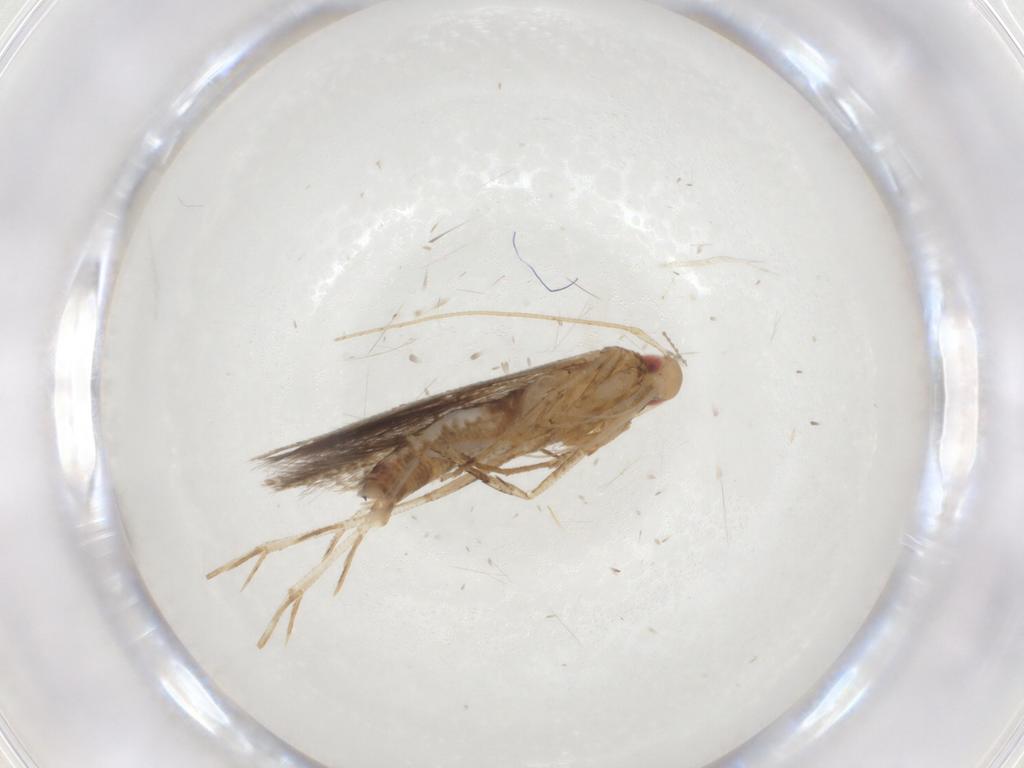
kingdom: Animalia
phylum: Arthropoda
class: Insecta
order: Lepidoptera
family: Cosmopterigidae
